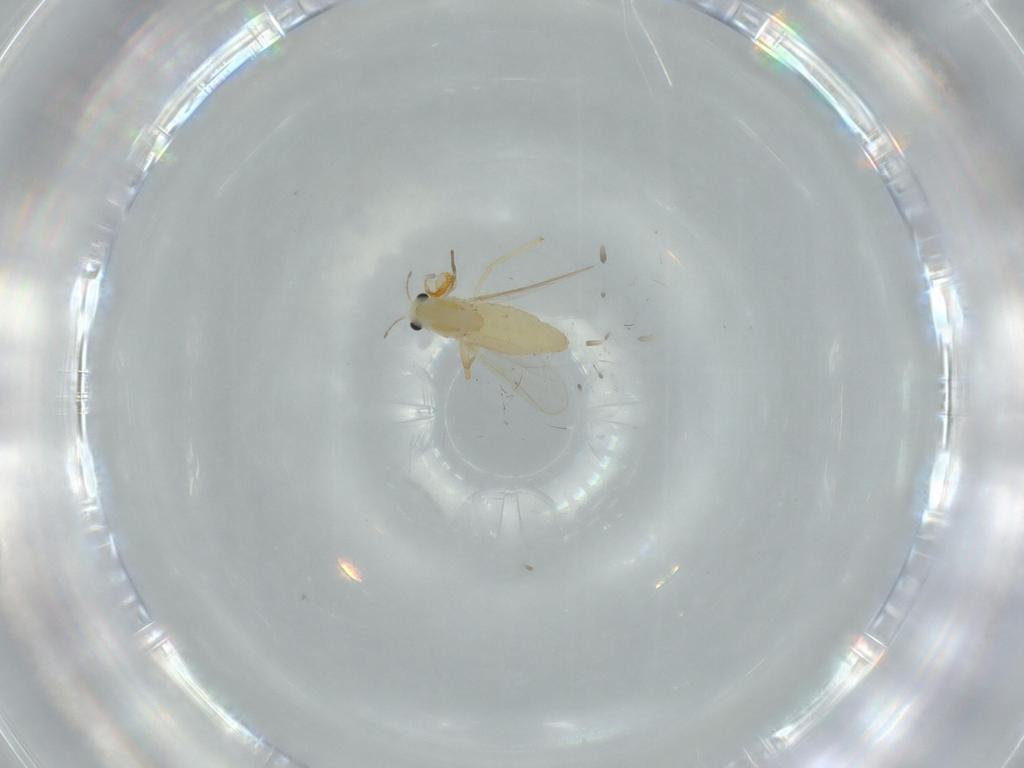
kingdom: Animalia
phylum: Arthropoda
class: Insecta
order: Diptera
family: Chironomidae
